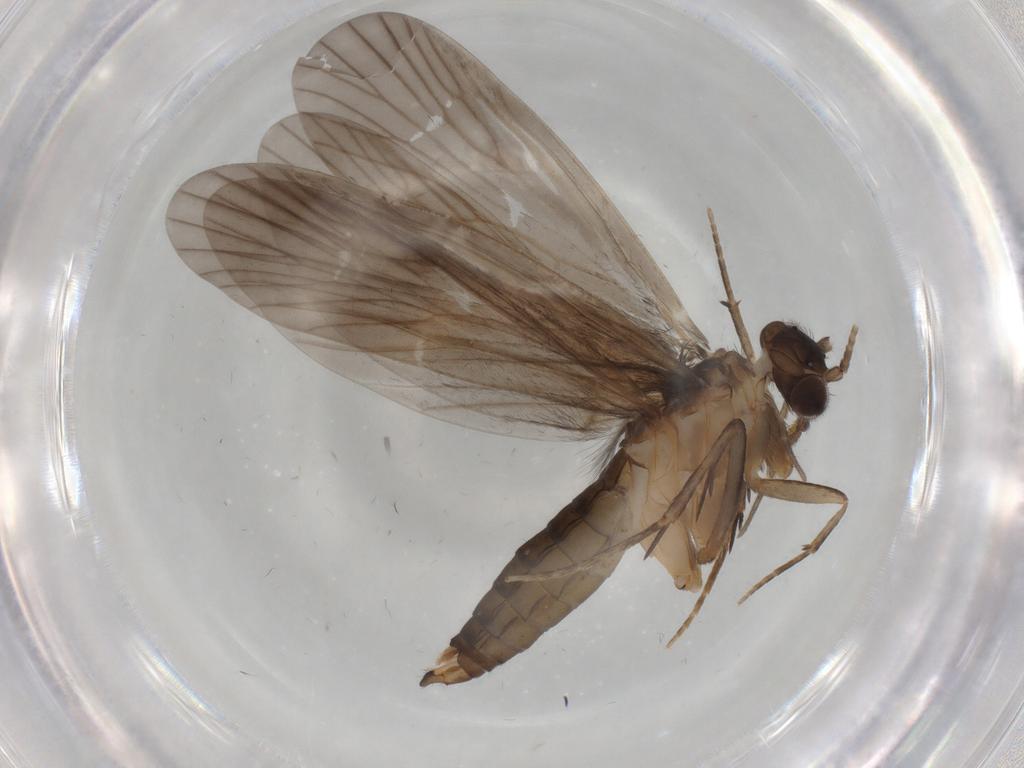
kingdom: Animalia
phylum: Arthropoda
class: Insecta
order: Trichoptera
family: Philopotamidae
